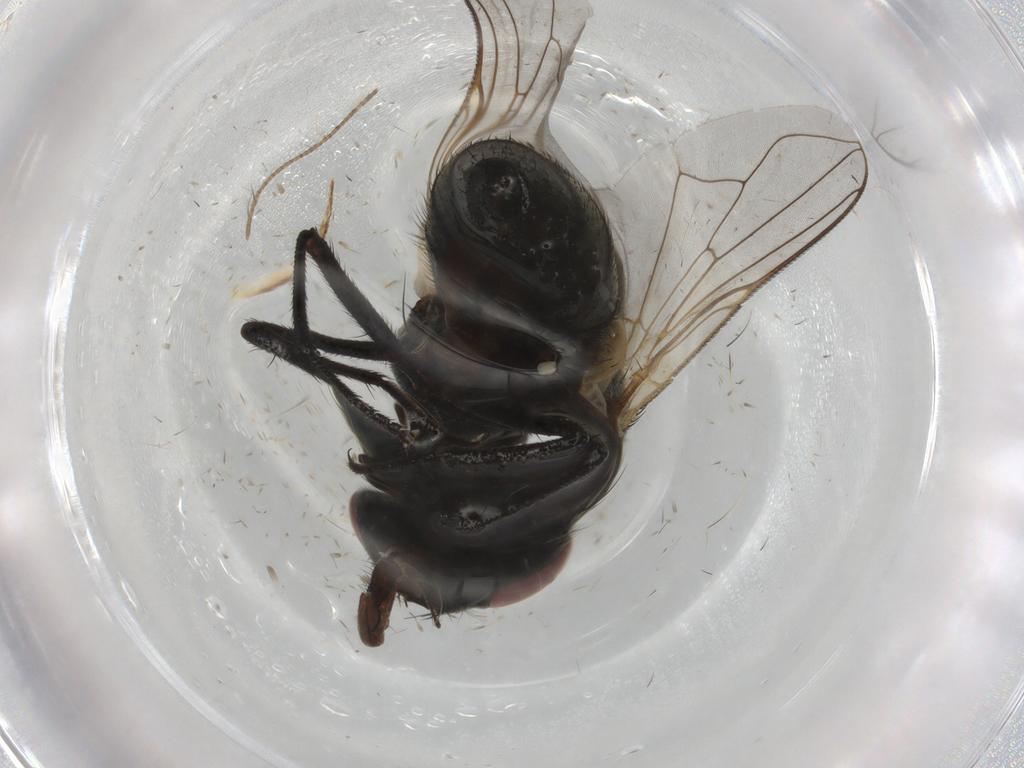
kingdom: Animalia
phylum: Arthropoda
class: Insecta
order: Diptera
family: Muscidae
